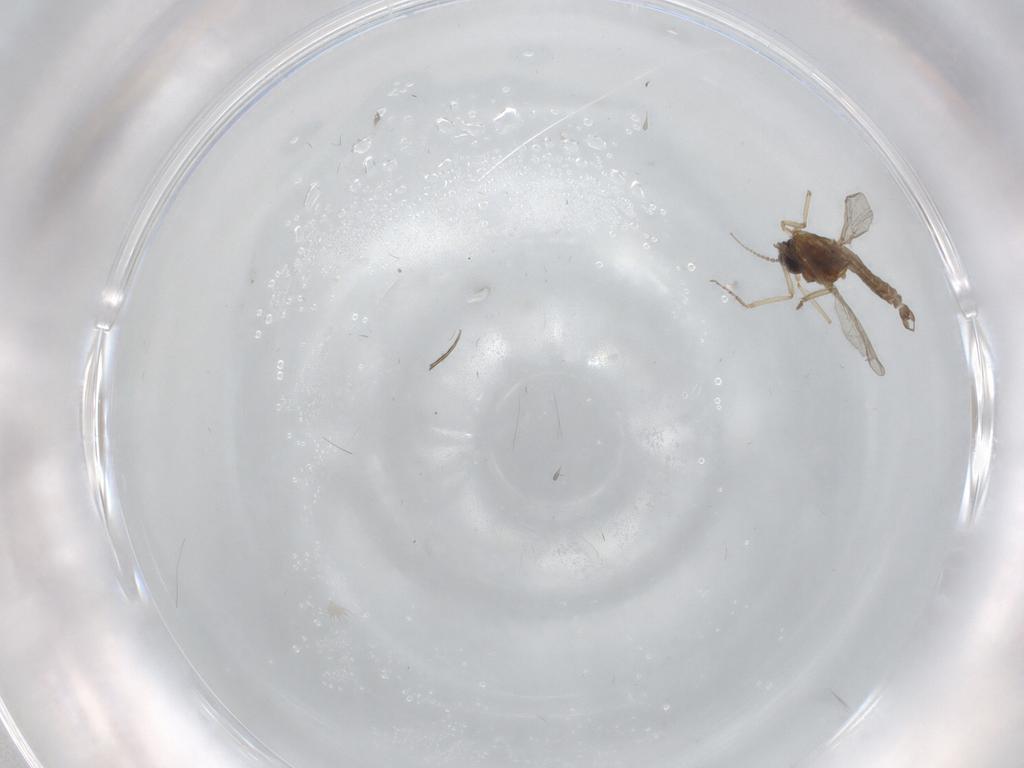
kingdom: Animalia
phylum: Arthropoda
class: Insecta
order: Diptera
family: Ceratopogonidae
